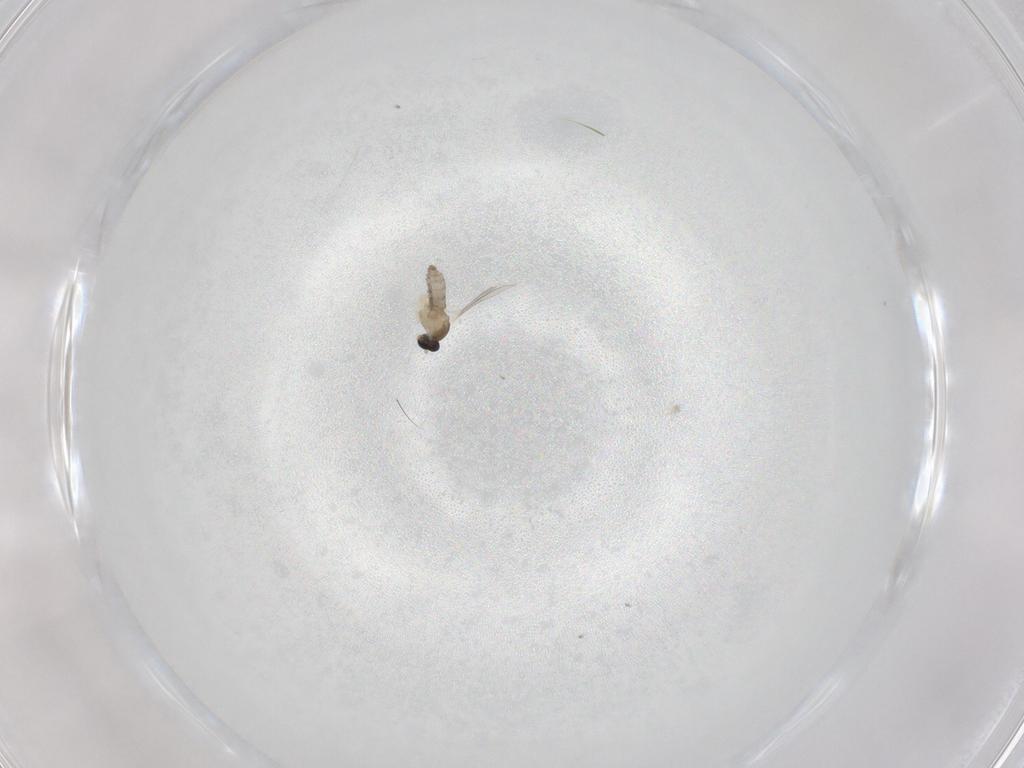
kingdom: Animalia
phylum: Arthropoda
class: Insecta
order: Diptera
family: Cecidomyiidae
